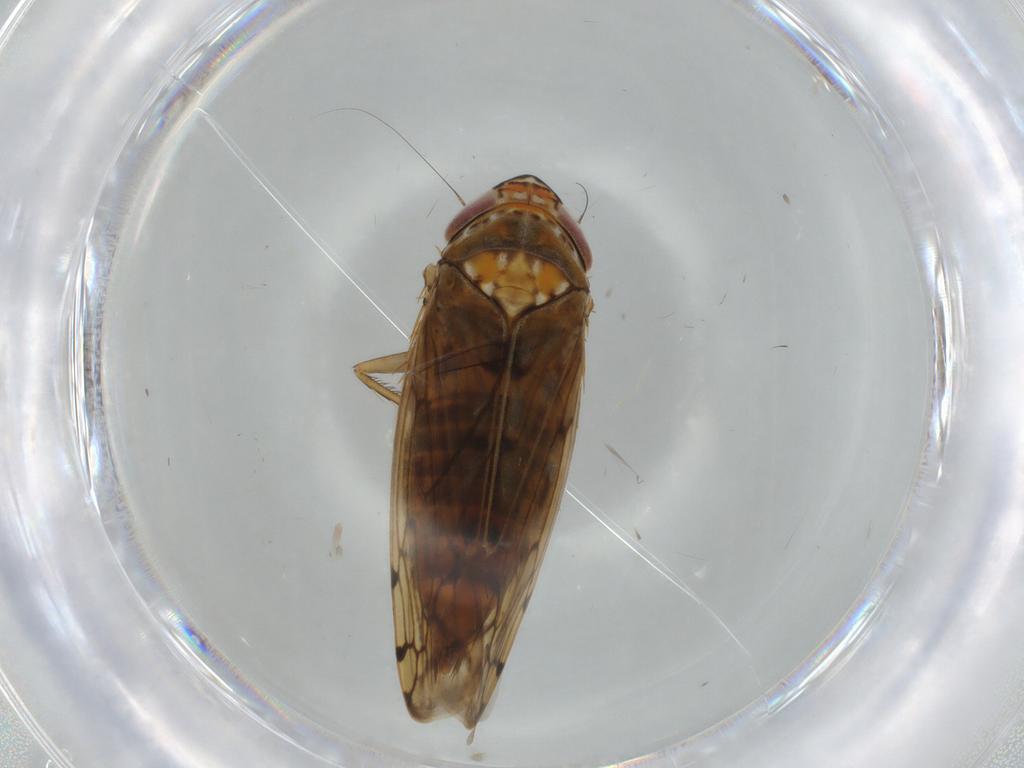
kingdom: Animalia
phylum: Arthropoda
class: Insecta
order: Hemiptera
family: Cicadellidae
